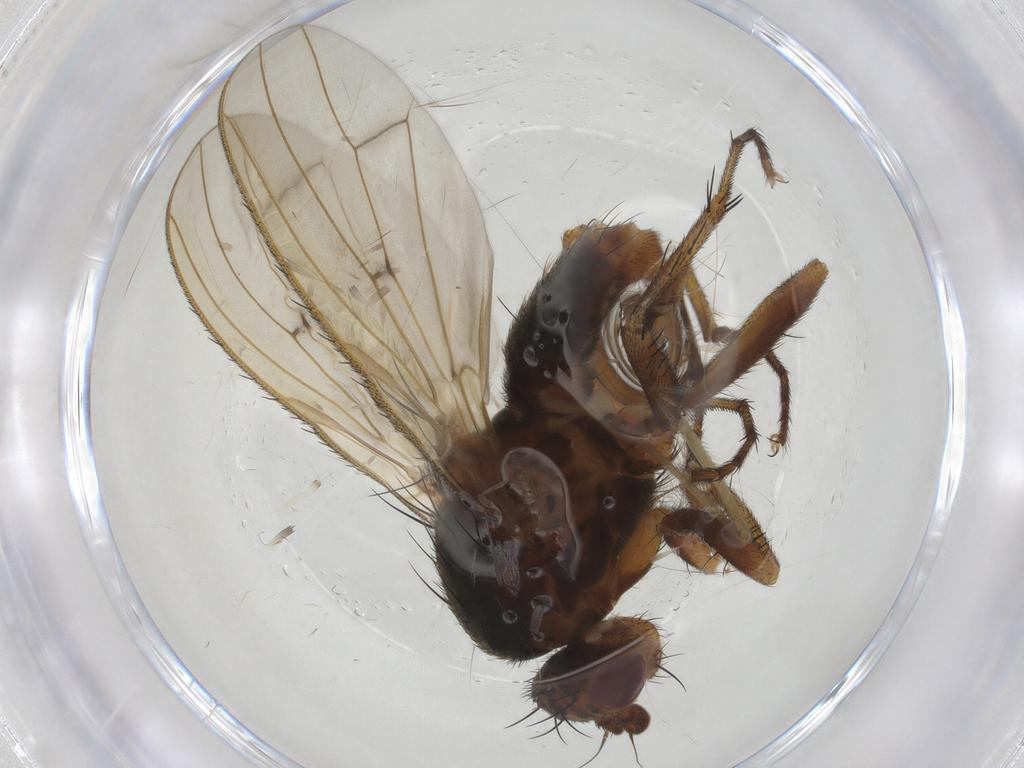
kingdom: Animalia
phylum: Arthropoda
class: Insecta
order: Diptera
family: Heleomyzidae
